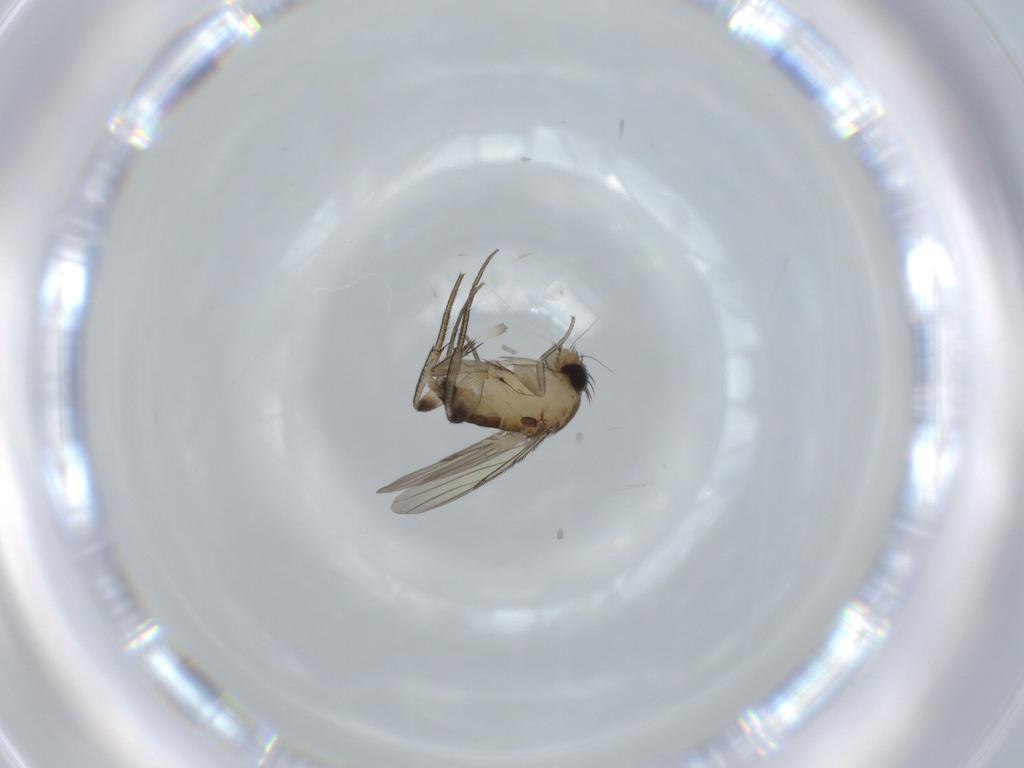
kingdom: Animalia
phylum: Arthropoda
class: Insecta
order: Diptera
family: Phoridae
